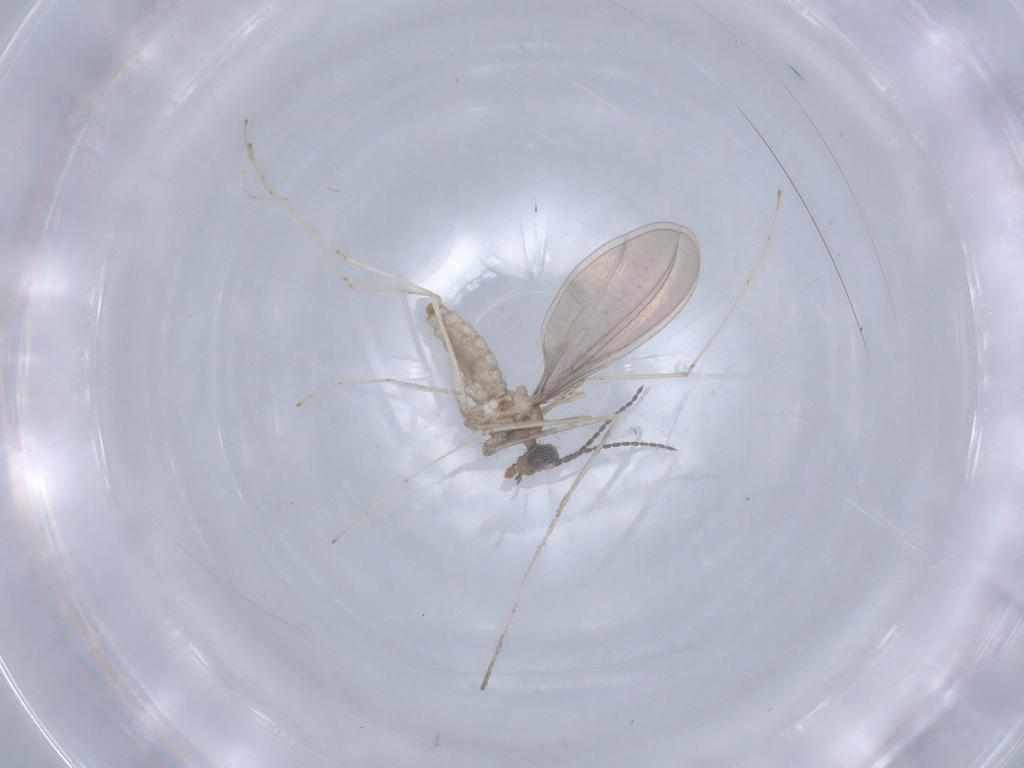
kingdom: Animalia
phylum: Arthropoda
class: Insecta
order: Diptera
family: Cecidomyiidae
